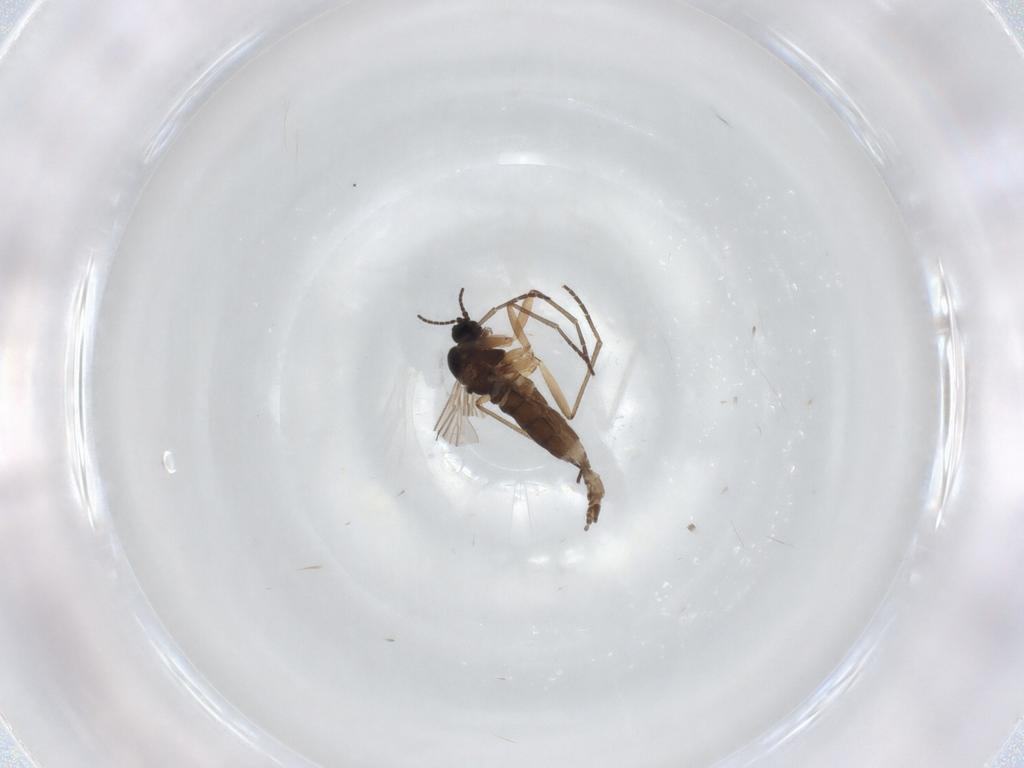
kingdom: Animalia
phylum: Arthropoda
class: Insecta
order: Diptera
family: Sciaridae
